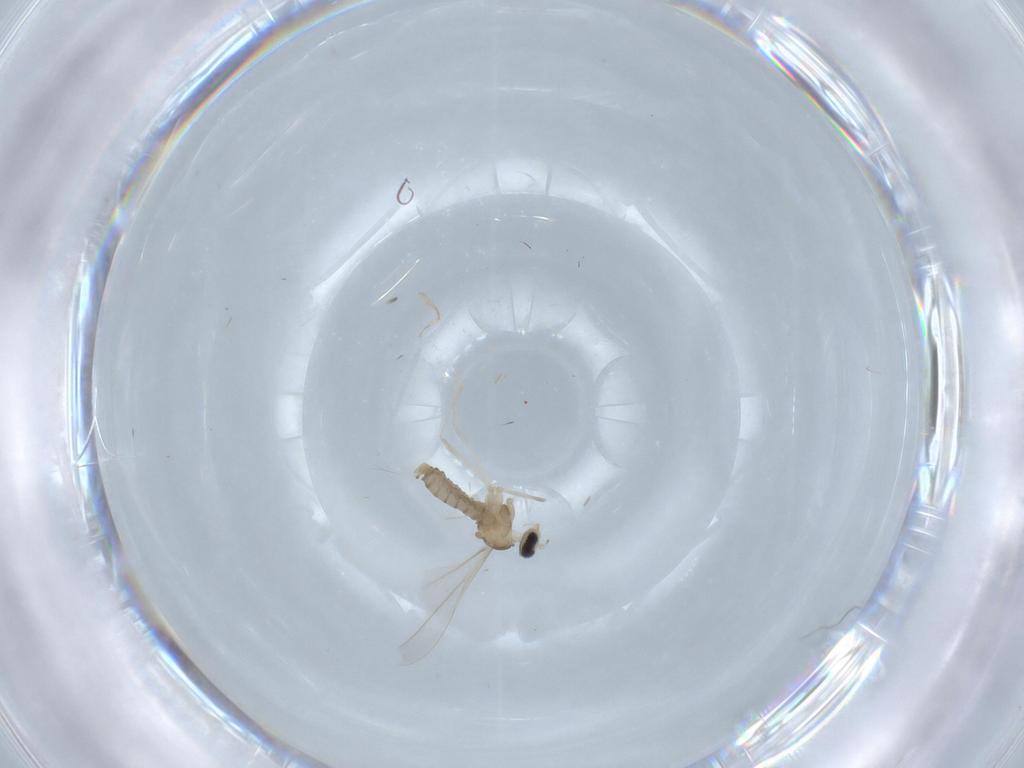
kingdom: Animalia
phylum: Arthropoda
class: Insecta
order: Diptera
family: Cecidomyiidae
